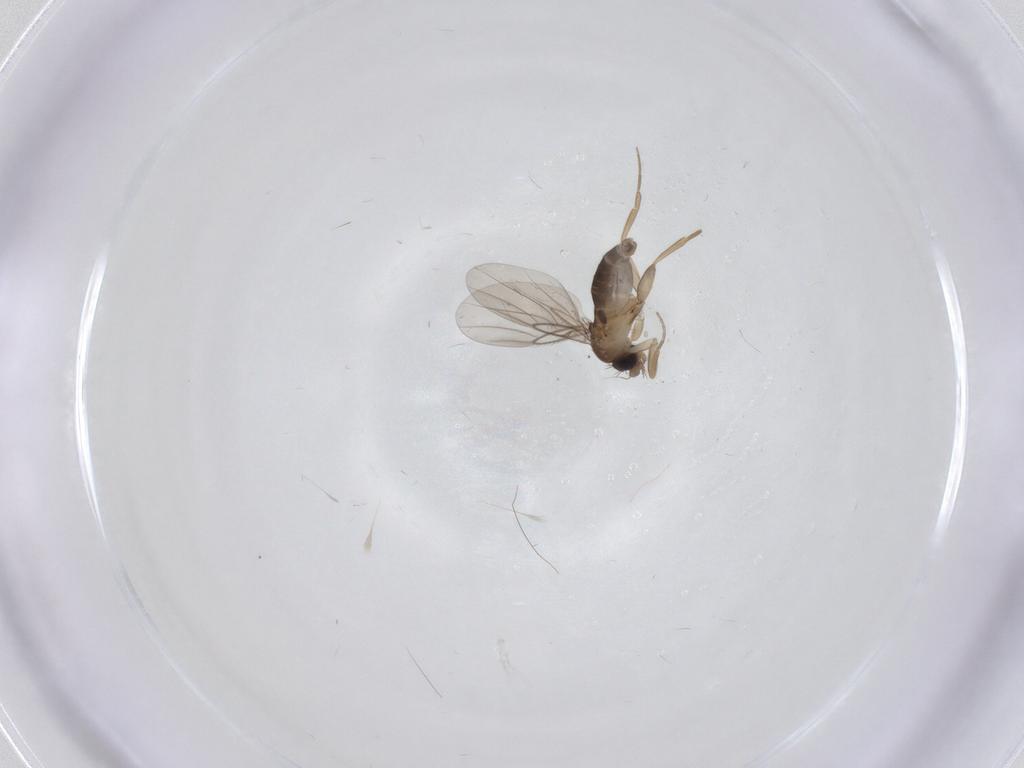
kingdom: Animalia
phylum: Arthropoda
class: Insecta
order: Diptera
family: Phoridae
